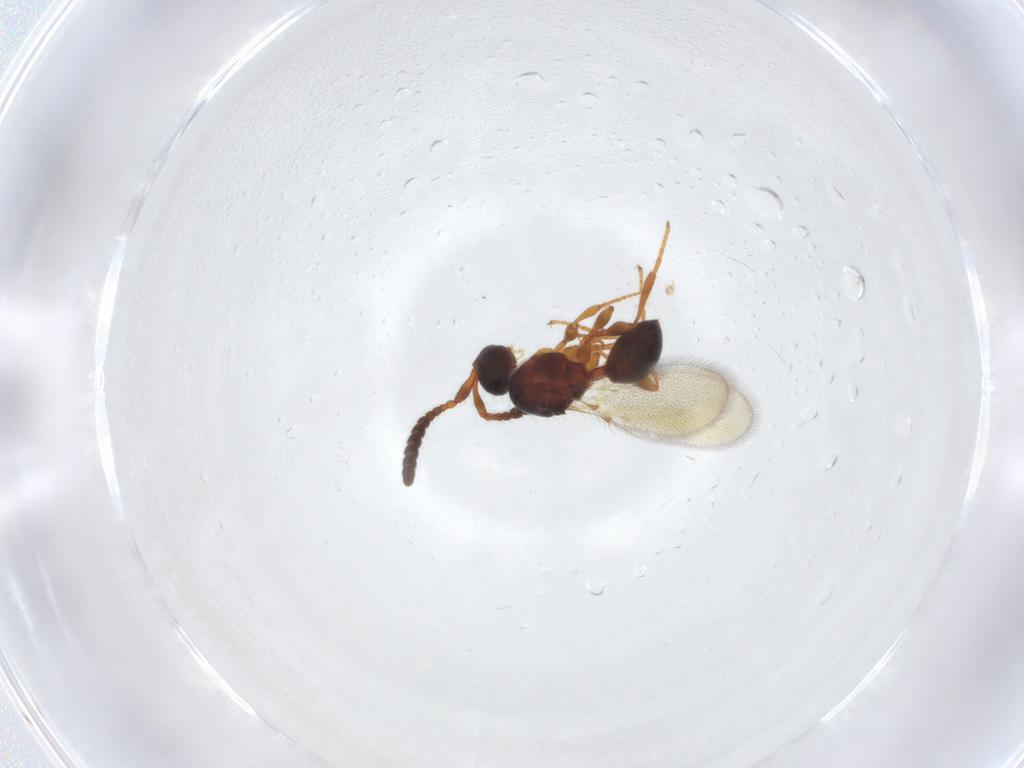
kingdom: Animalia
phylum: Arthropoda
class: Insecta
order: Hymenoptera
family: Diapriidae
